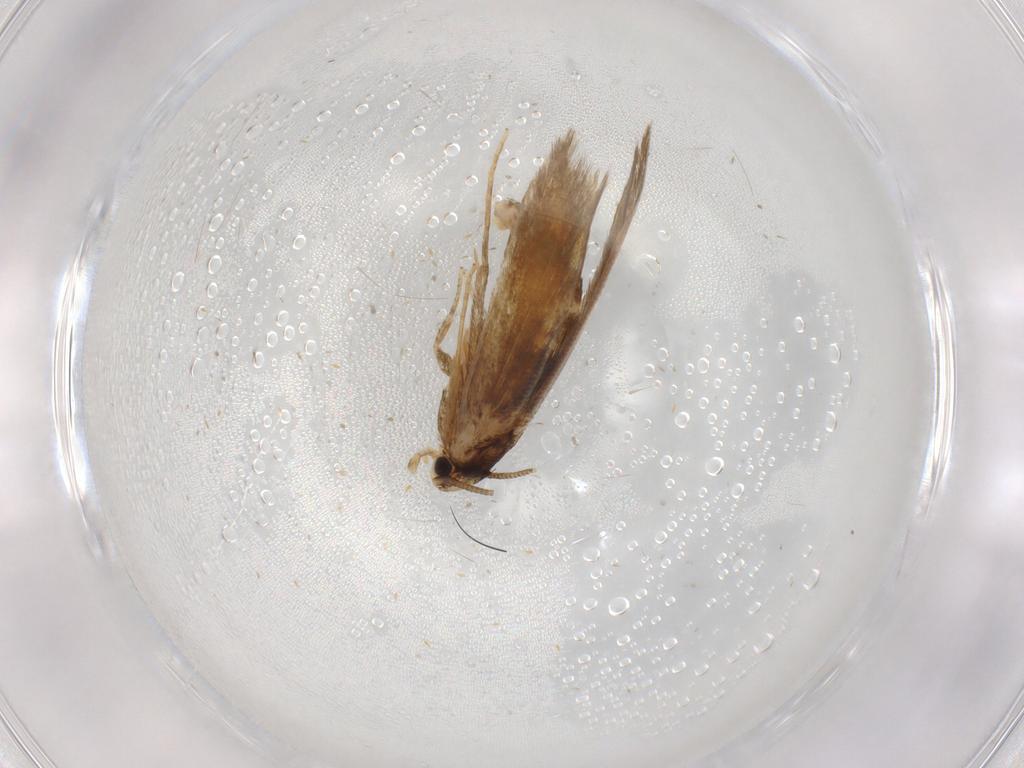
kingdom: Animalia
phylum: Arthropoda
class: Insecta
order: Lepidoptera
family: Tineidae
